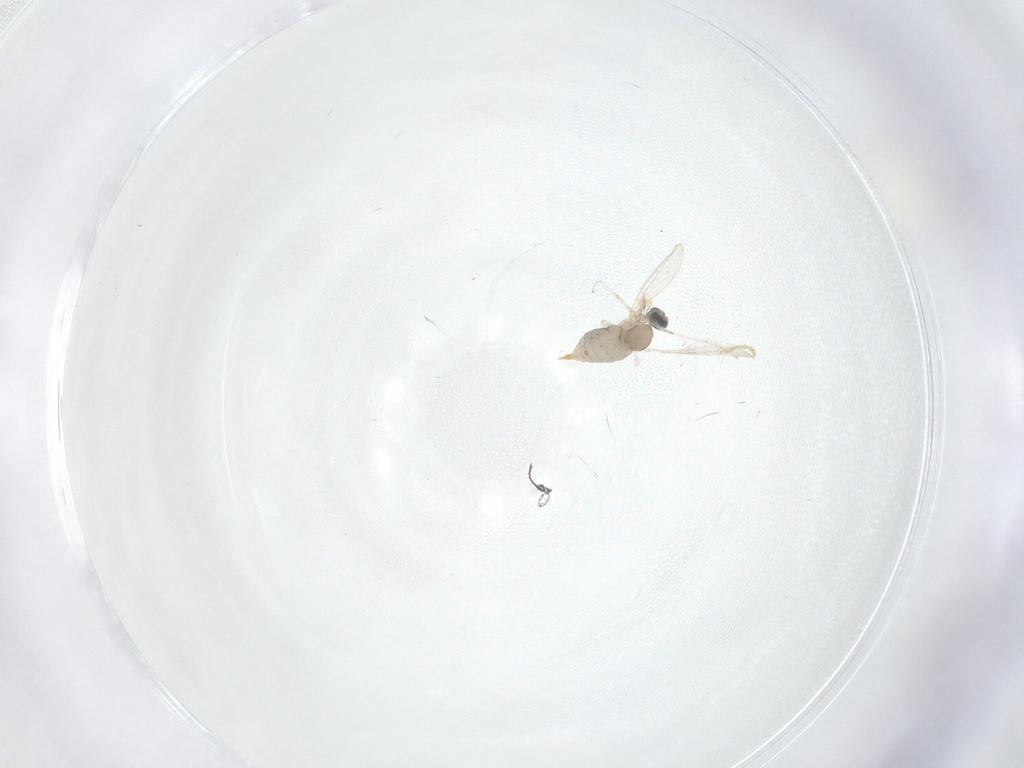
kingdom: Animalia
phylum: Arthropoda
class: Insecta
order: Diptera
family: Cecidomyiidae
